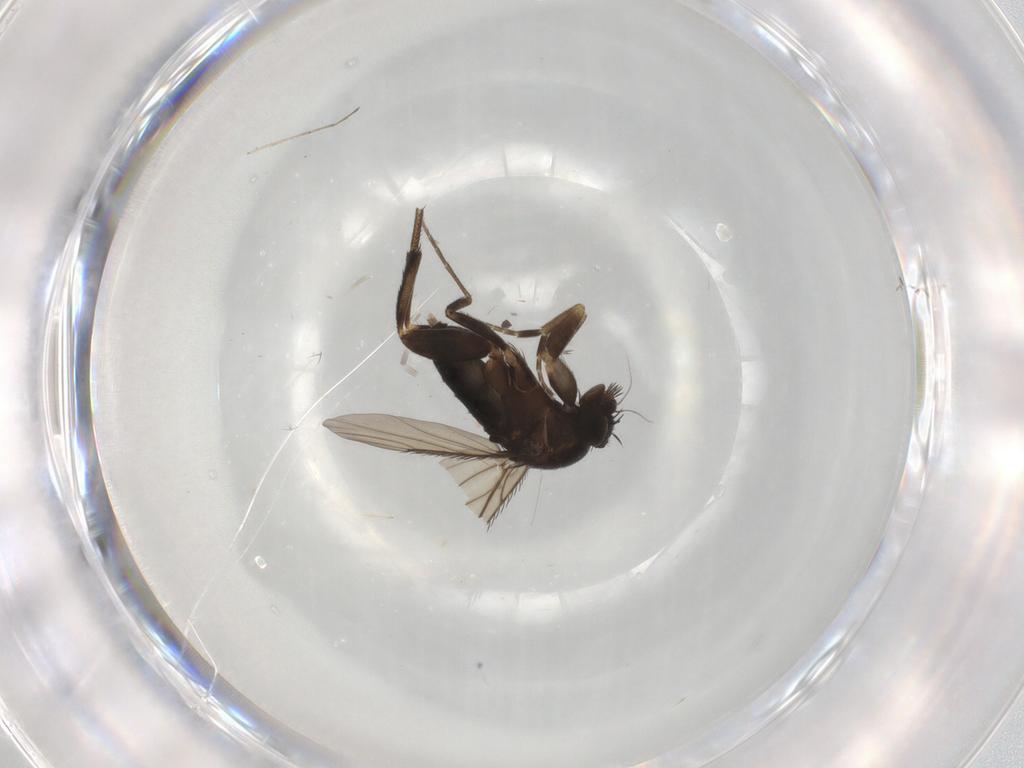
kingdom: Animalia
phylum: Arthropoda
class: Insecta
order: Diptera
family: Phoridae
